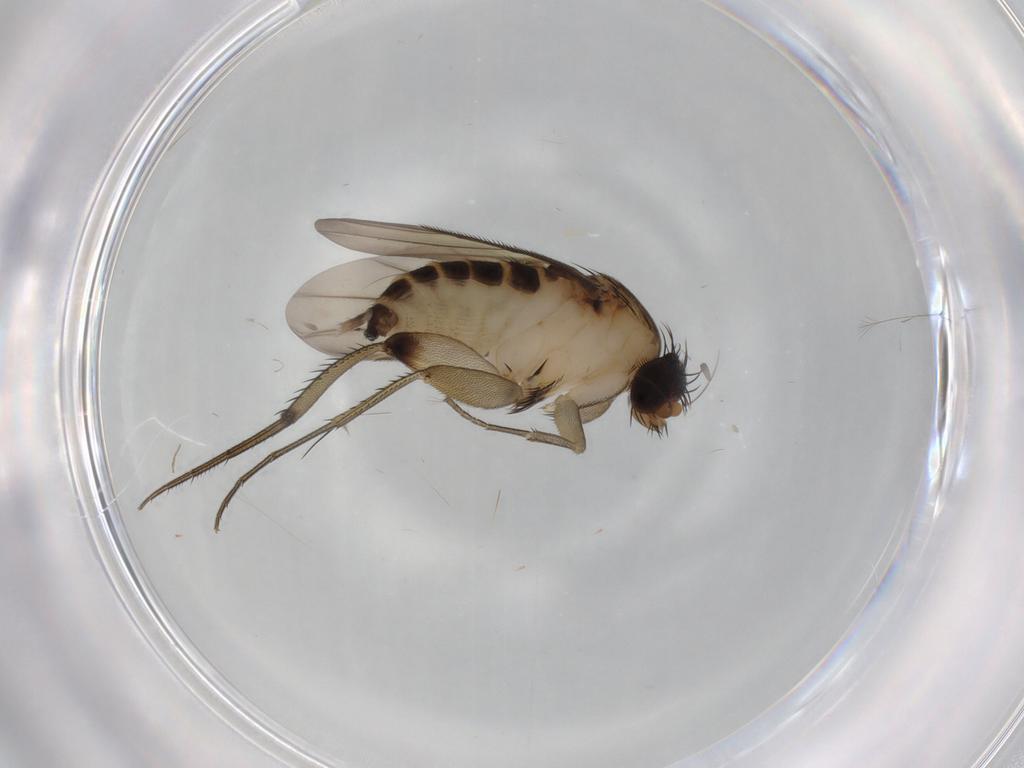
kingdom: Animalia
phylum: Arthropoda
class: Insecta
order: Diptera
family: Phoridae
